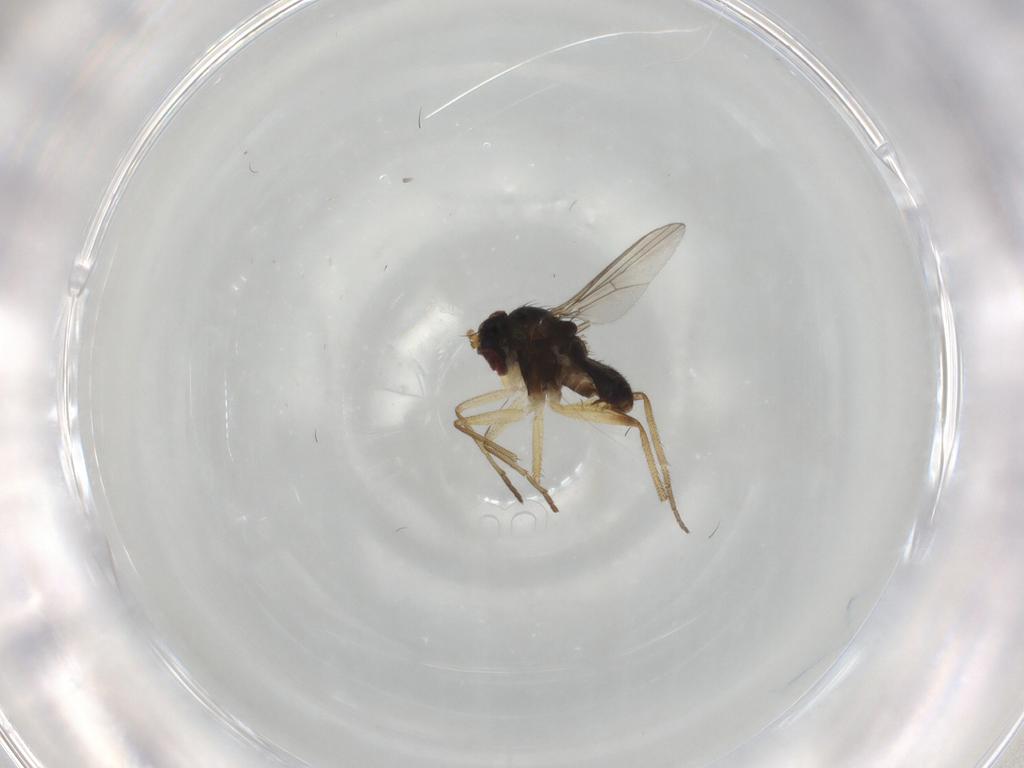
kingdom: Animalia
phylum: Arthropoda
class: Insecta
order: Diptera
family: Dolichopodidae
